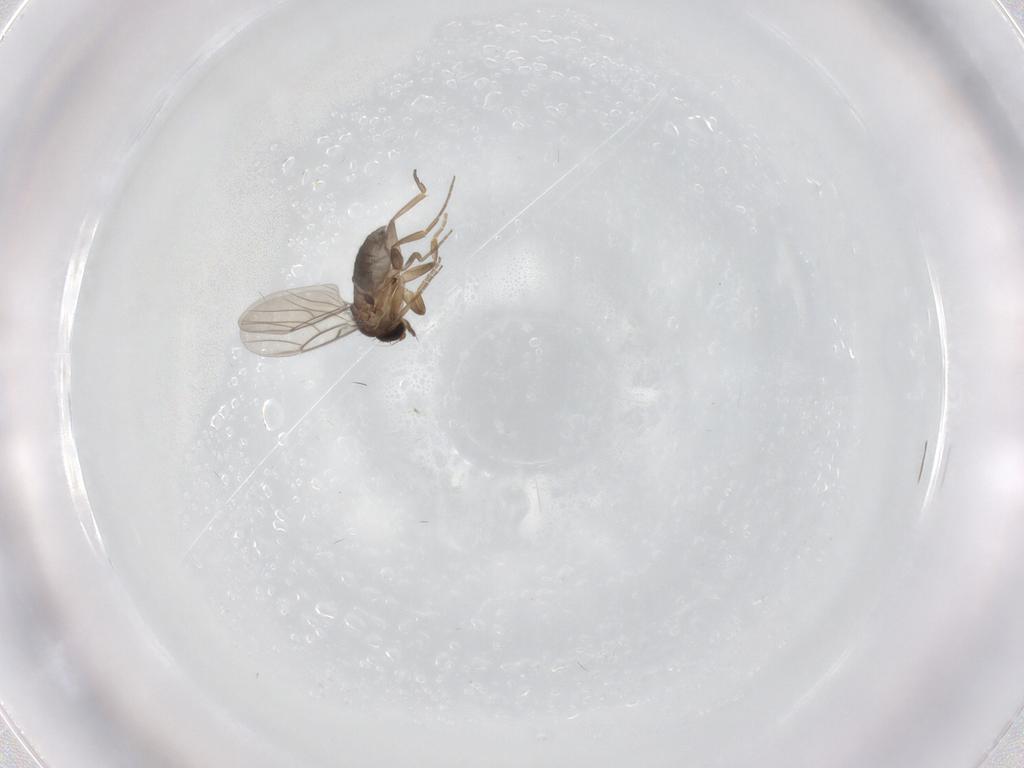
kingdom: Animalia
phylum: Arthropoda
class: Insecta
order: Diptera
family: Phoridae
